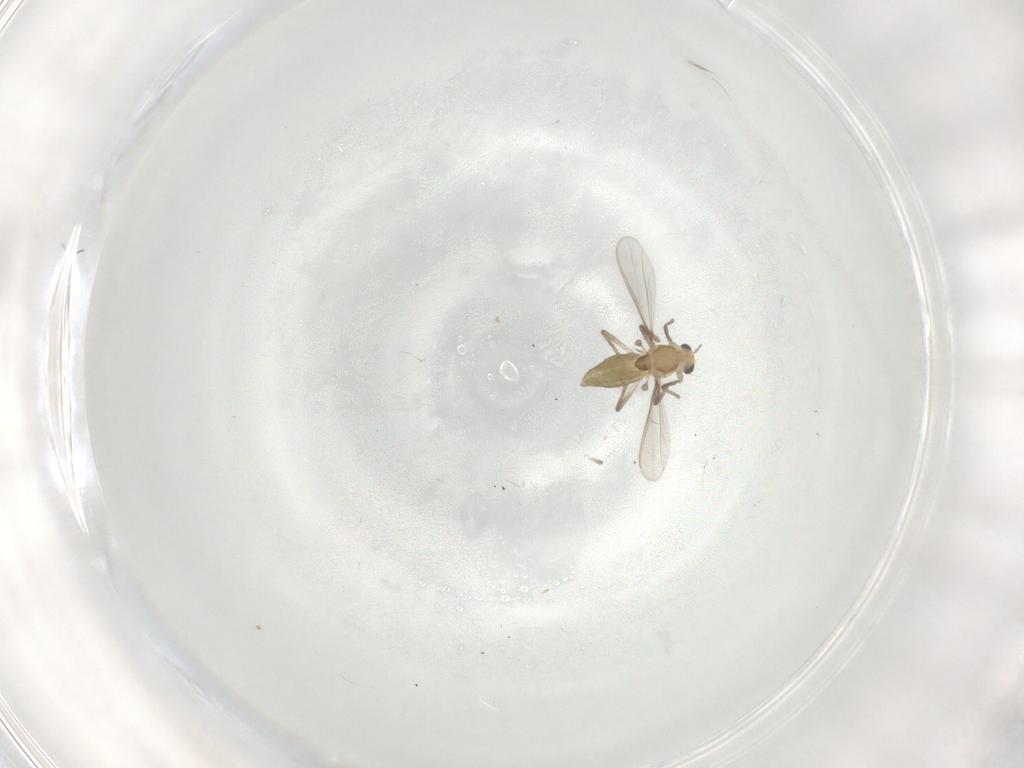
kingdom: Animalia
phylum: Arthropoda
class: Insecta
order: Diptera
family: Chironomidae
